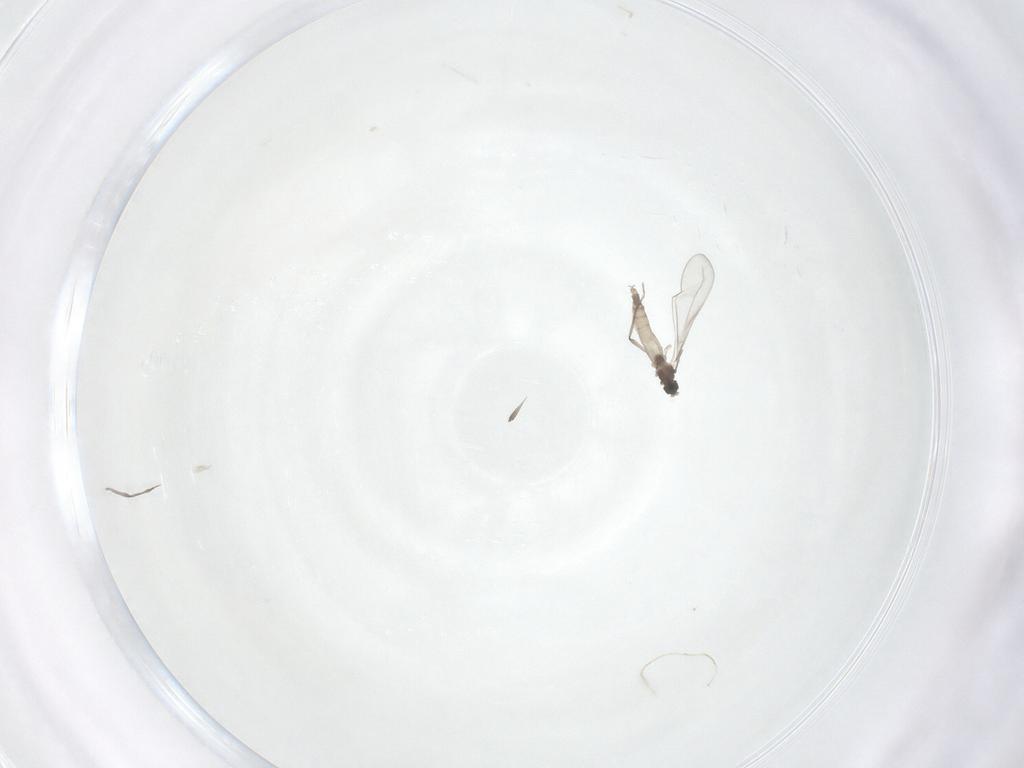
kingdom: Animalia
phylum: Arthropoda
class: Insecta
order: Diptera
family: Cecidomyiidae
